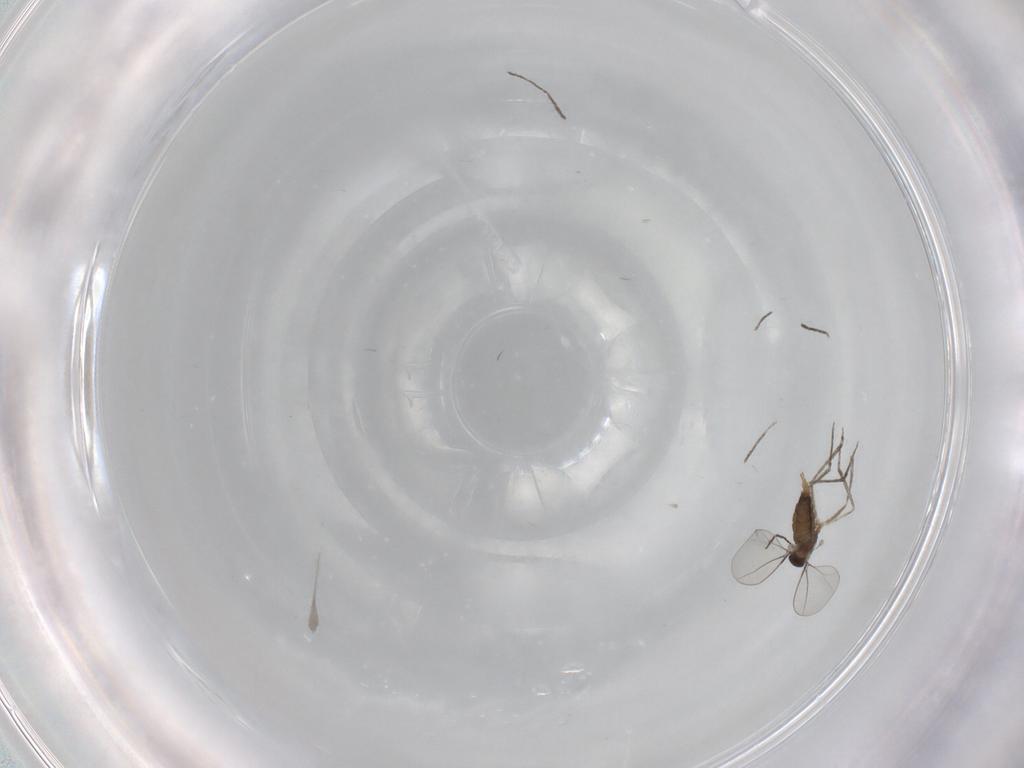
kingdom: Animalia
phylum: Arthropoda
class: Insecta
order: Diptera
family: Cecidomyiidae
